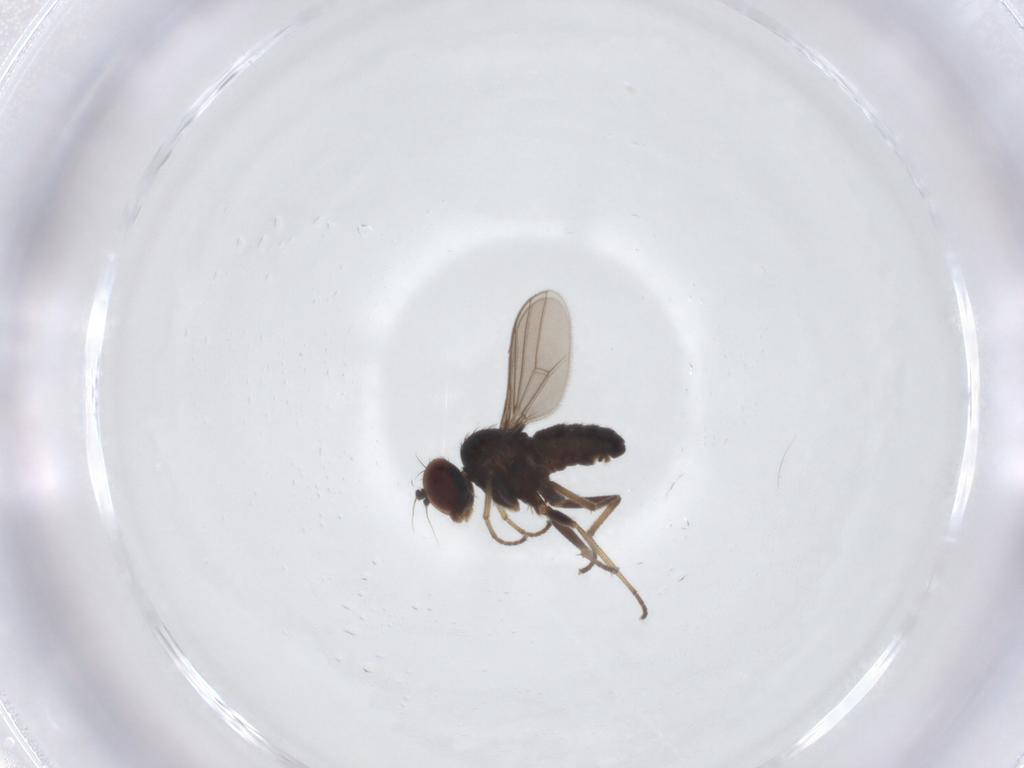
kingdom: Animalia
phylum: Arthropoda
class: Insecta
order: Diptera
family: Dolichopodidae
